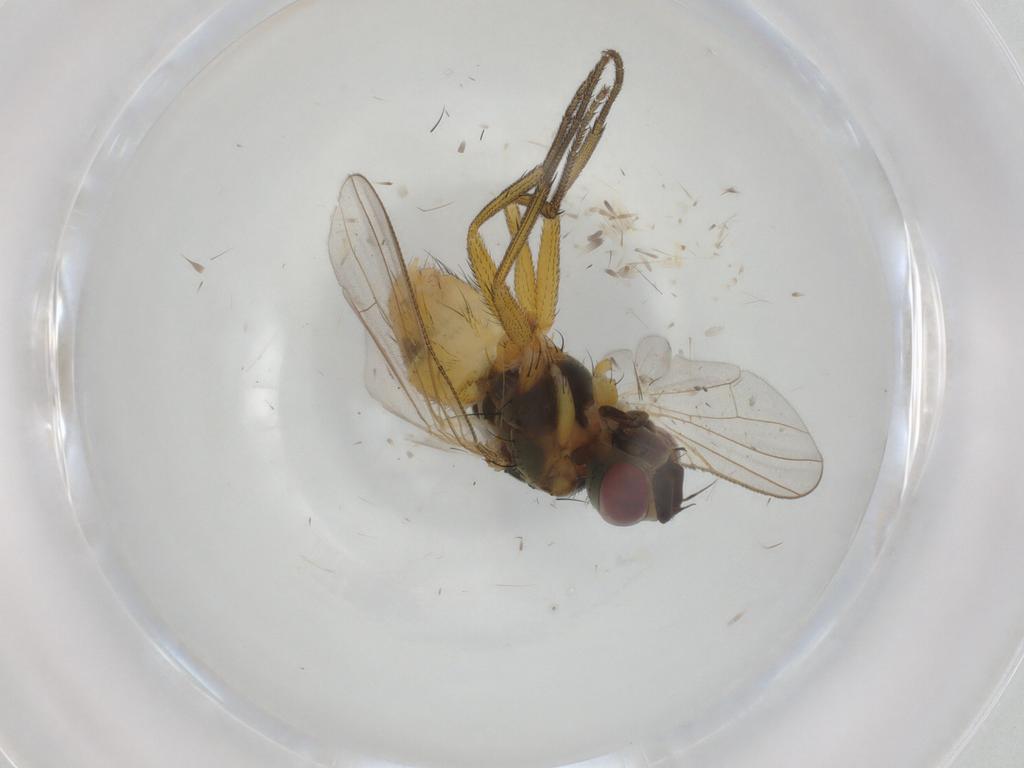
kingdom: Animalia
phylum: Arthropoda
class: Insecta
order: Diptera
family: Muscidae
